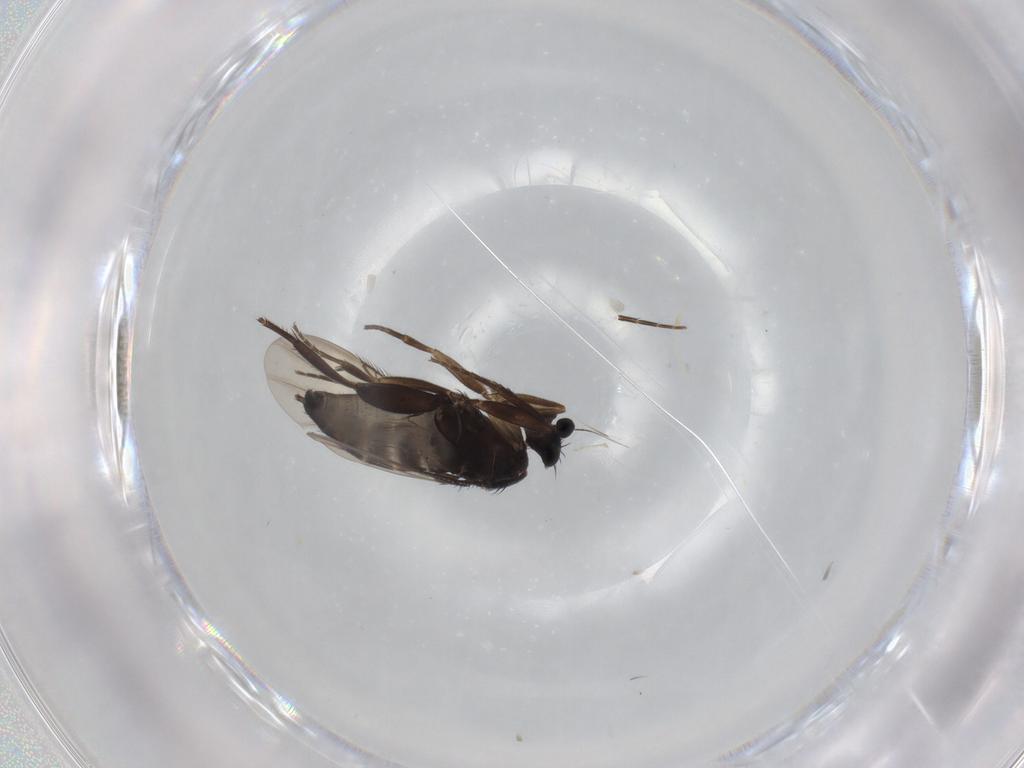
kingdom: Animalia
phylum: Arthropoda
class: Insecta
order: Diptera
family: Phoridae
